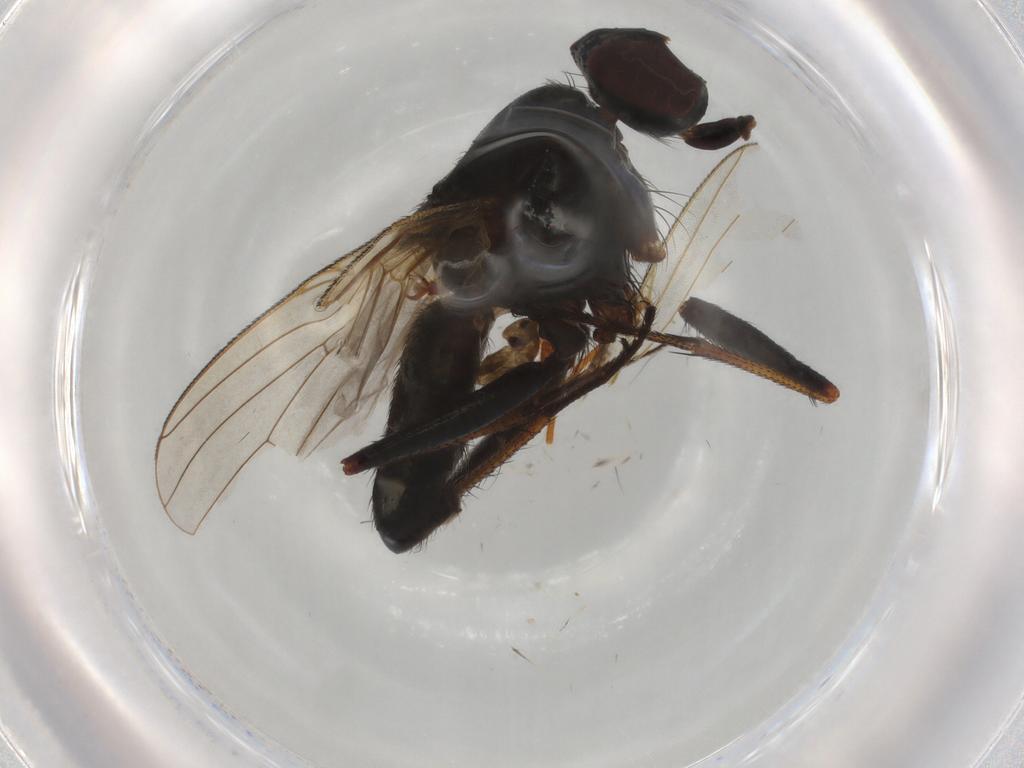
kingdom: Animalia
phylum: Arthropoda
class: Insecta
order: Diptera
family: Muscidae
